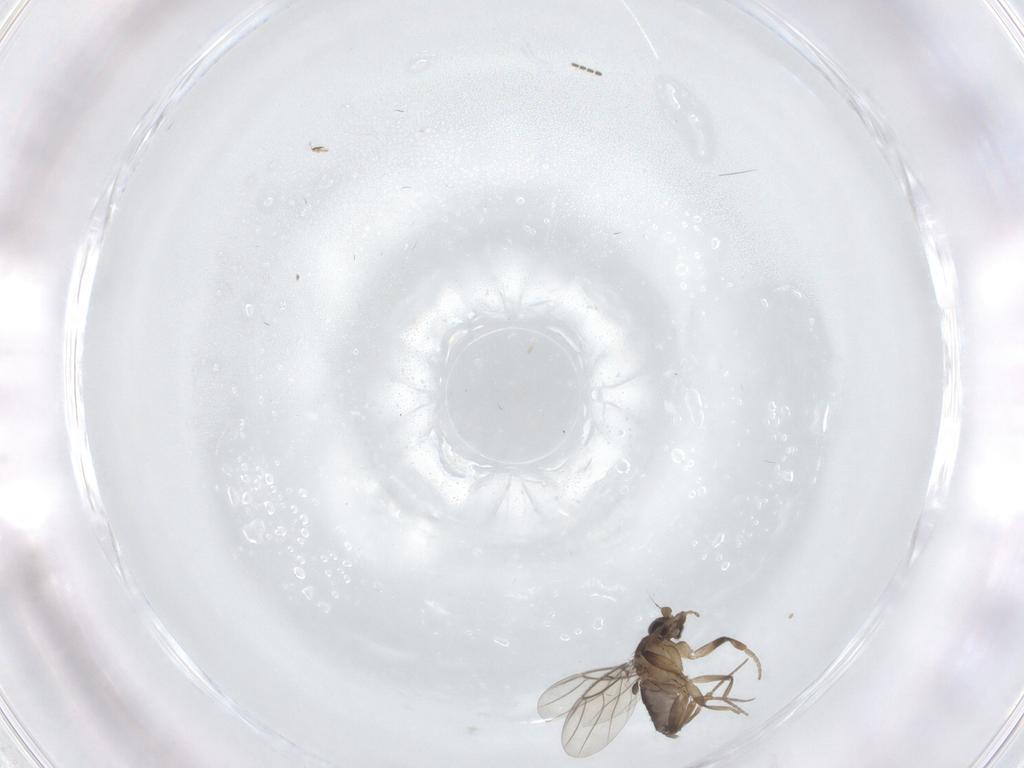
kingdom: Animalia
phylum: Arthropoda
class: Insecta
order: Diptera
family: Phoridae
